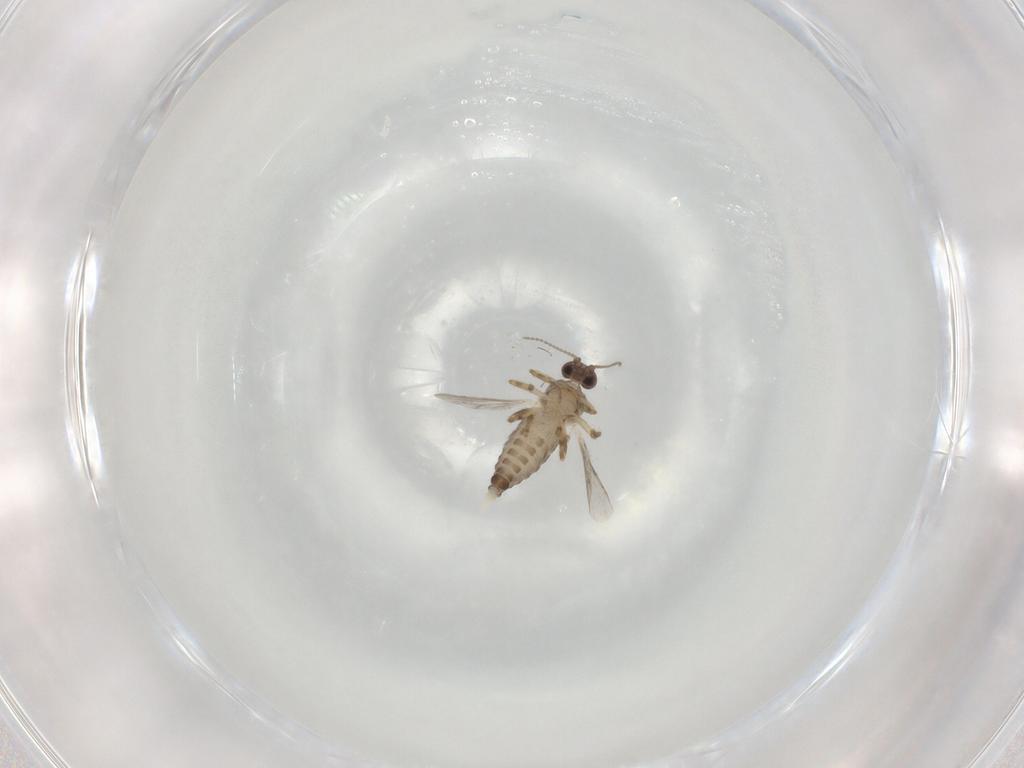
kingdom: Animalia
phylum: Arthropoda
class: Insecta
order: Diptera
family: Ceratopogonidae
